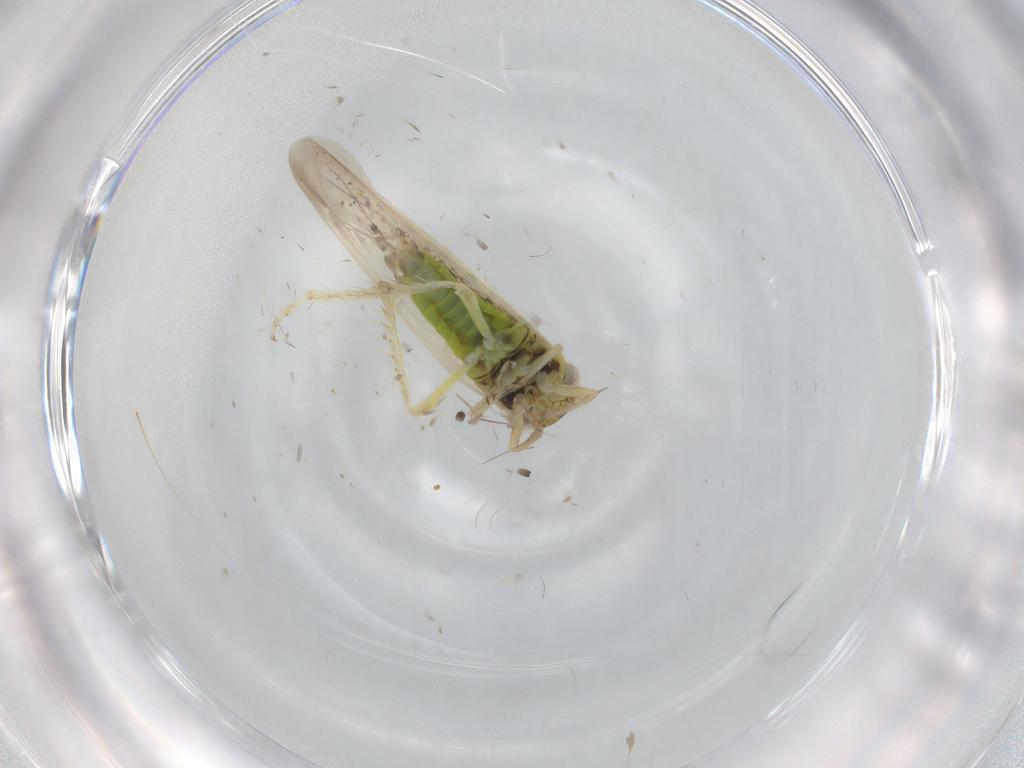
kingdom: Animalia
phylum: Arthropoda
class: Insecta
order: Hemiptera
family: Cicadellidae
